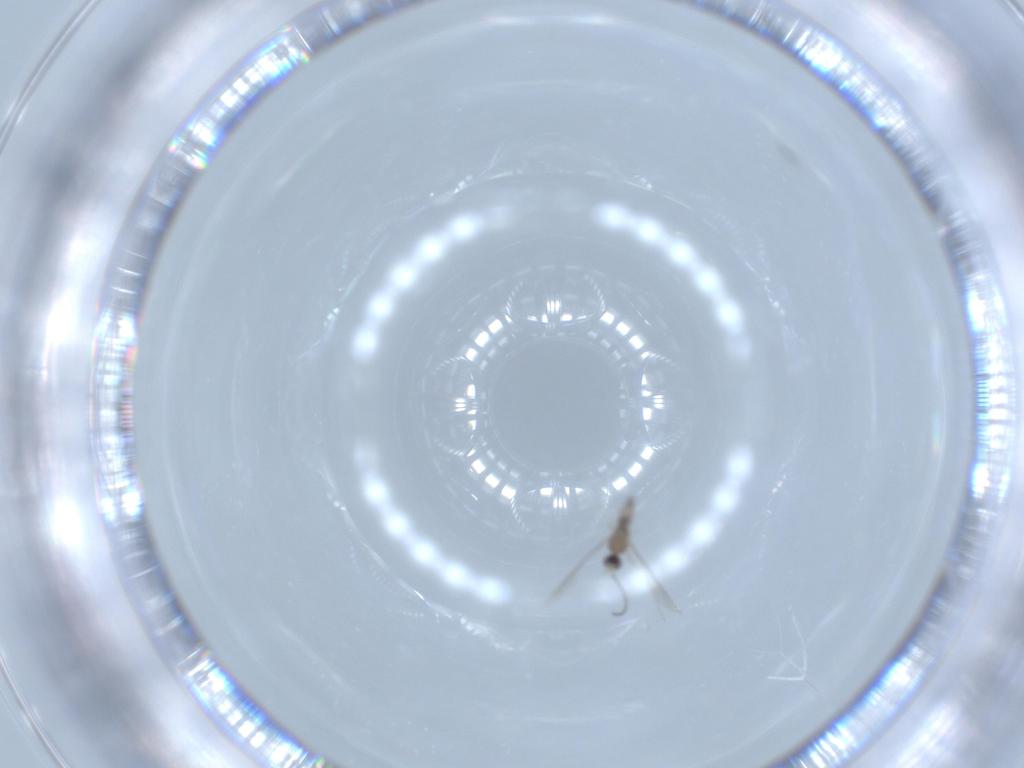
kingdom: Animalia
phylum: Arthropoda
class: Insecta
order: Diptera
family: Cecidomyiidae
